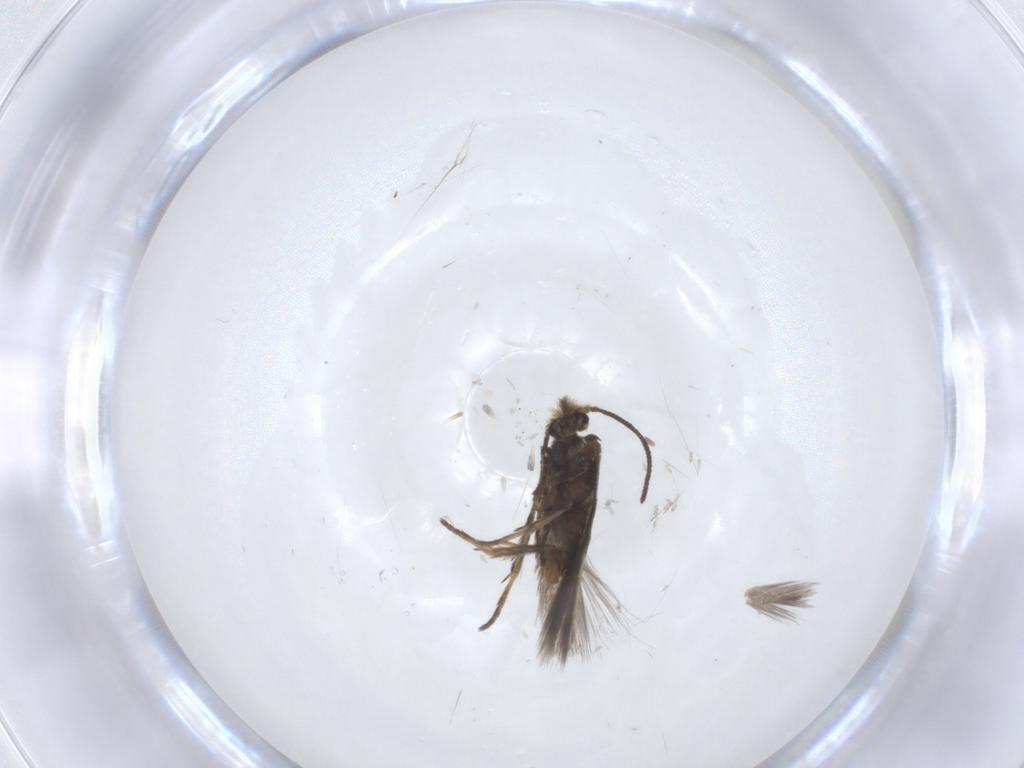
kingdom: Animalia
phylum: Arthropoda
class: Insecta
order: Lepidoptera
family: Nepticulidae
